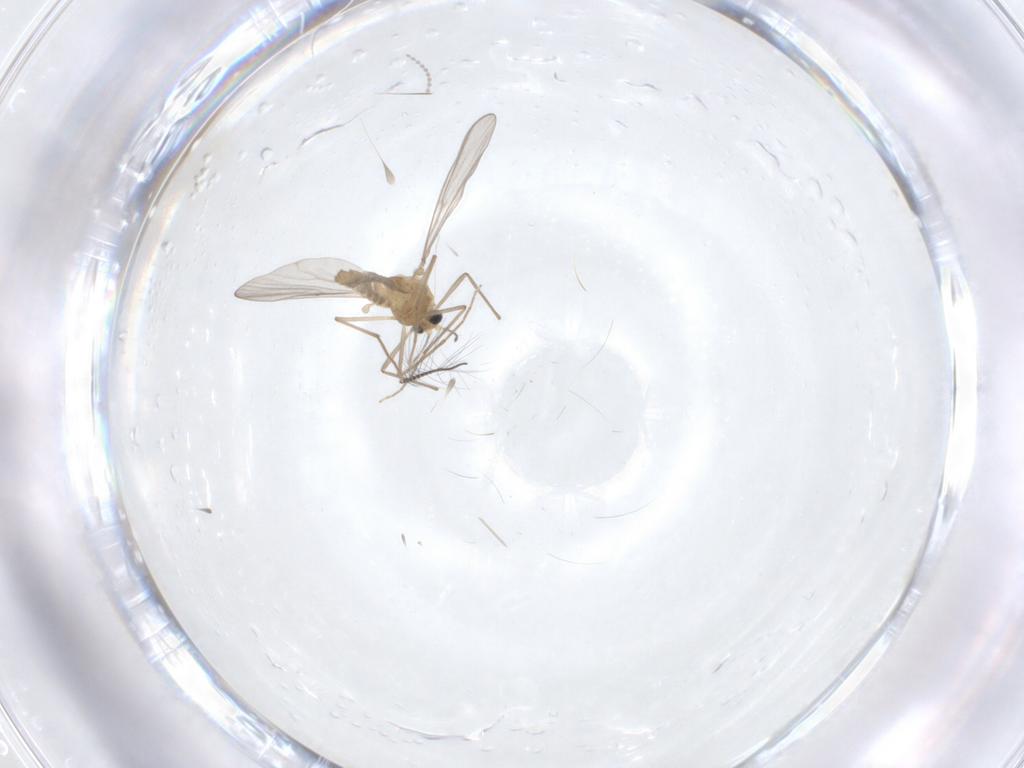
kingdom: Animalia
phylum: Arthropoda
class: Insecta
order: Diptera
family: Chironomidae
